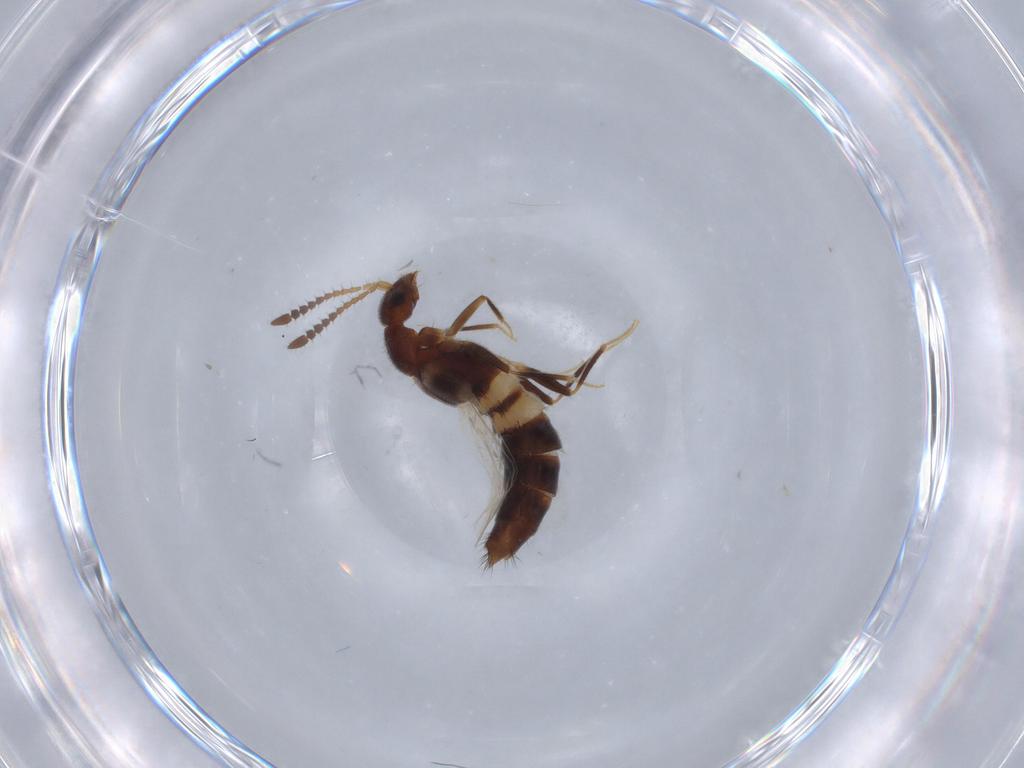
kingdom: Animalia
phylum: Arthropoda
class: Insecta
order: Coleoptera
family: Staphylinidae
